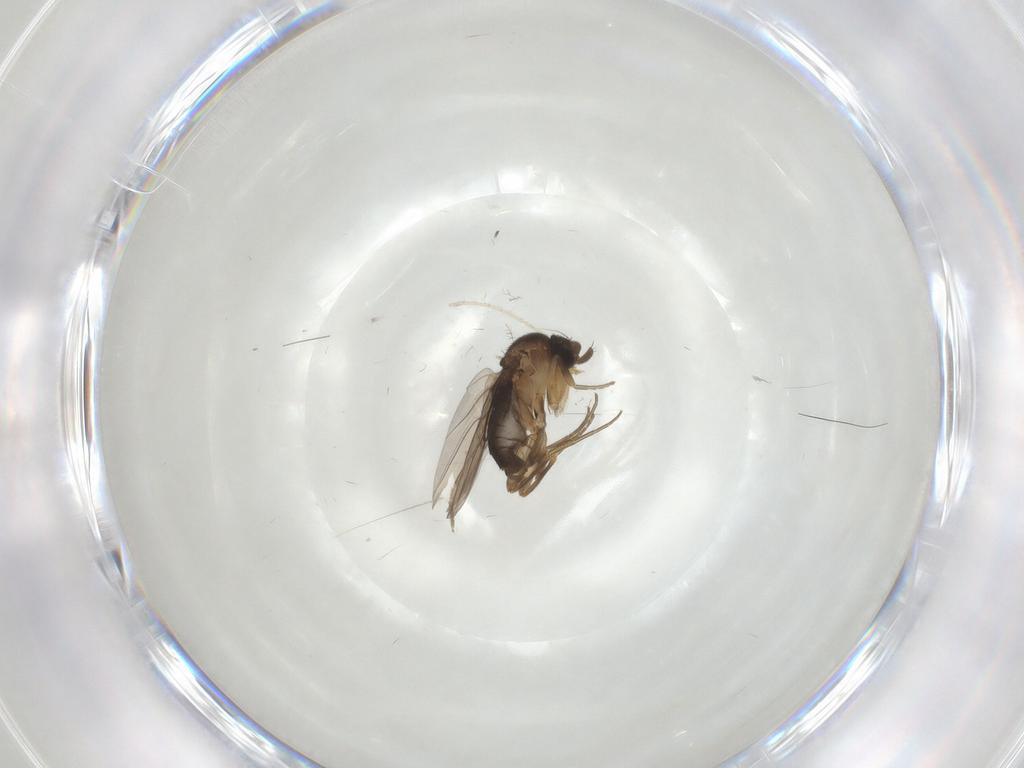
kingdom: Animalia
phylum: Arthropoda
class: Insecta
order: Diptera
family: Phoridae
